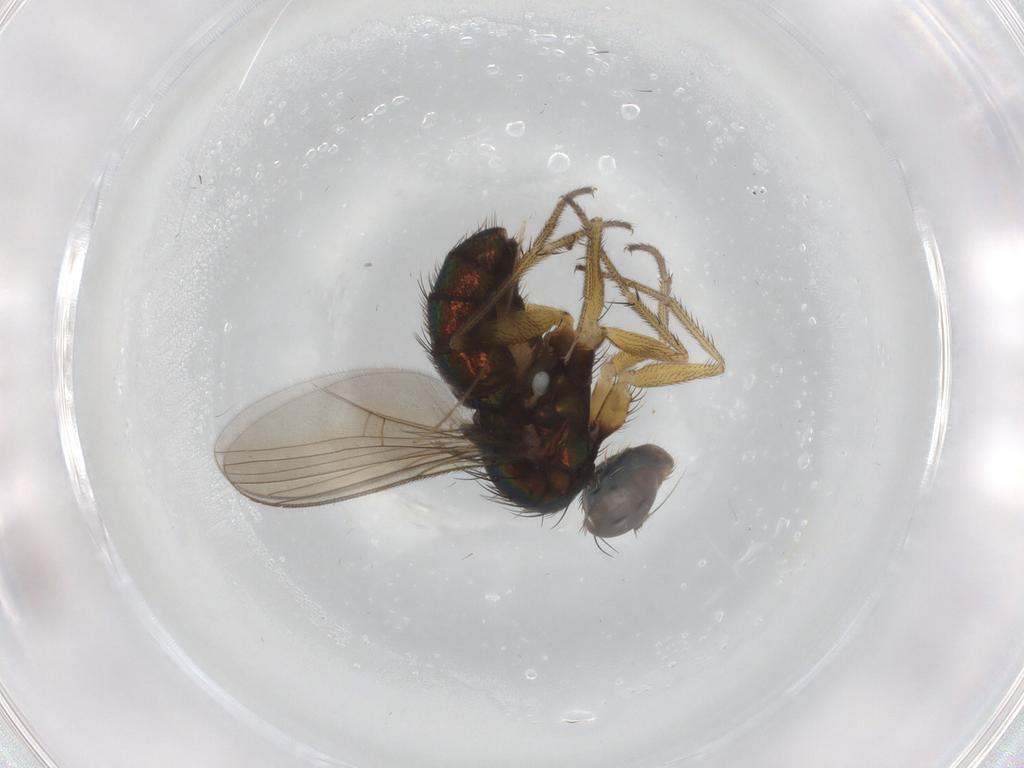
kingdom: Animalia
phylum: Arthropoda
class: Insecta
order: Diptera
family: Dolichopodidae
